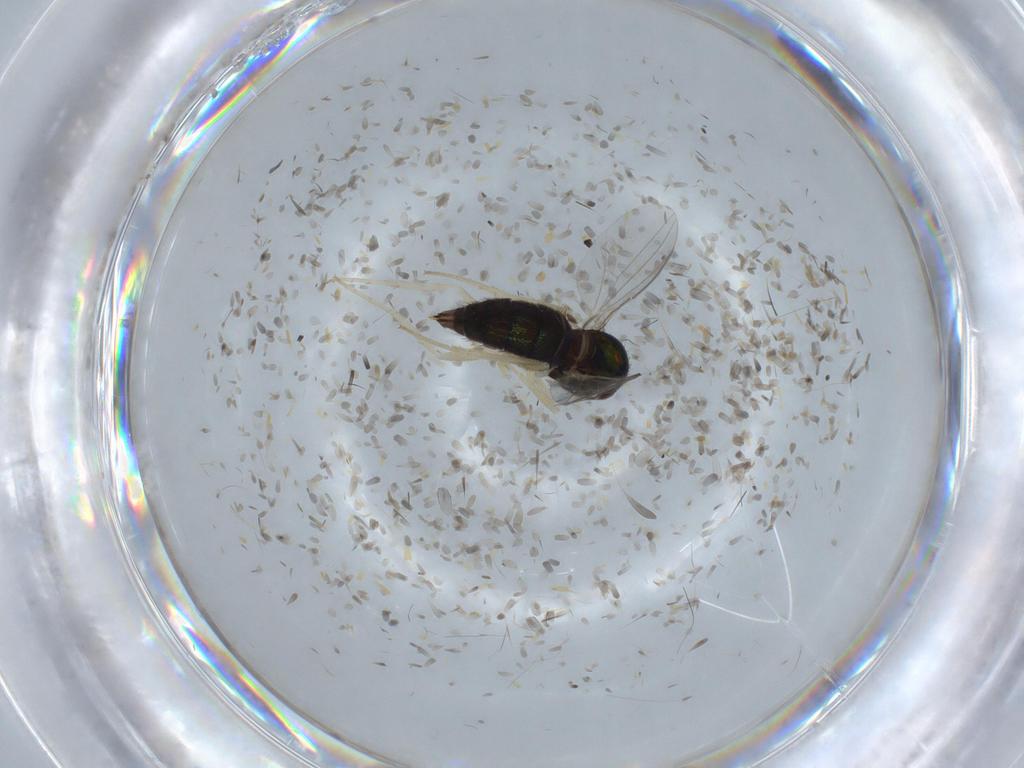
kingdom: Animalia
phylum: Arthropoda
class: Insecta
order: Diptera
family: Dolichopodidae
